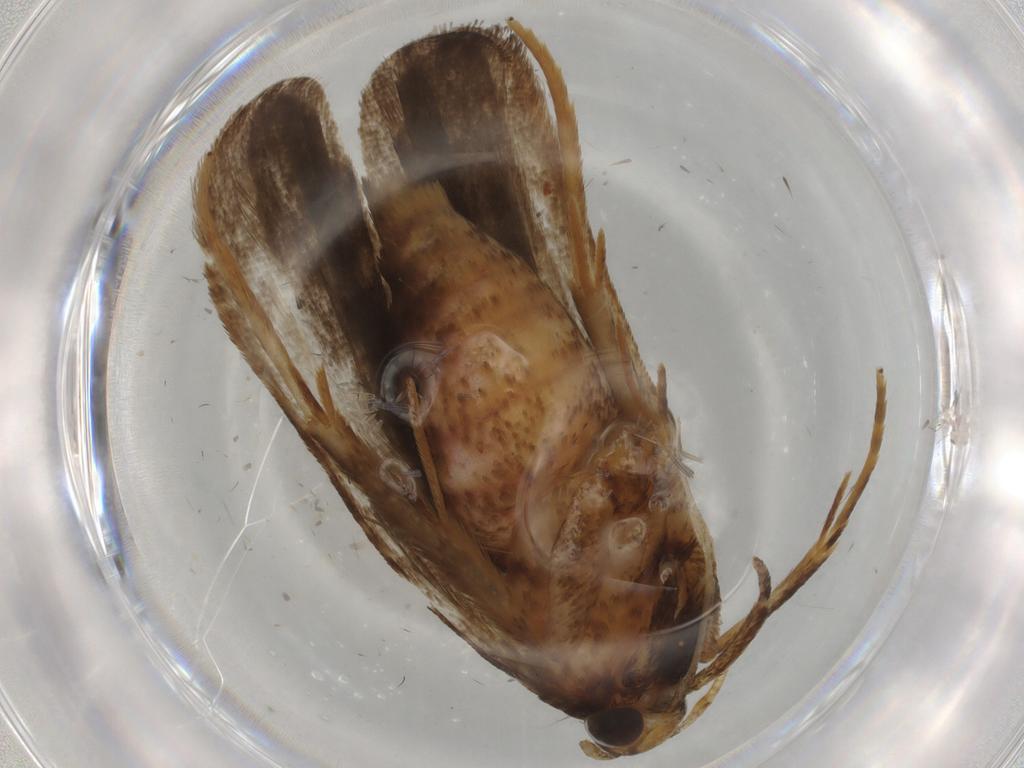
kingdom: Animalia
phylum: Arthropoda
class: Insecta
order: Lepidoptera
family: Autostichidae
